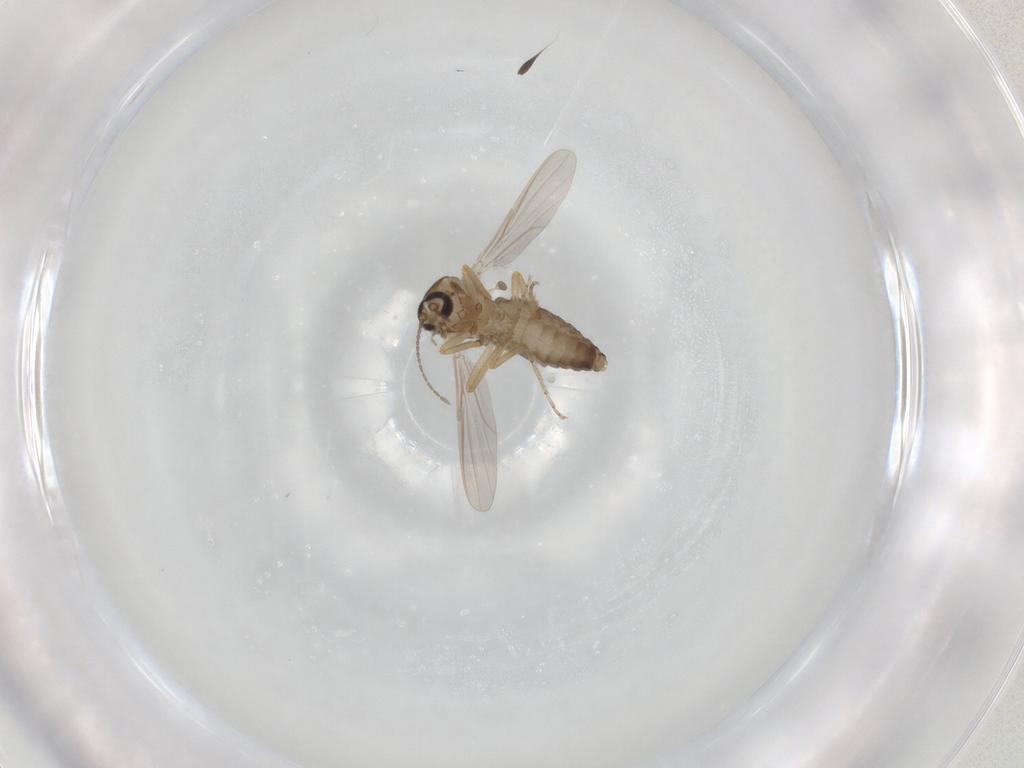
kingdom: Animalia
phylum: Arthropoda
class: Insecta
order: Diptera
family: Ceratopogonidae
